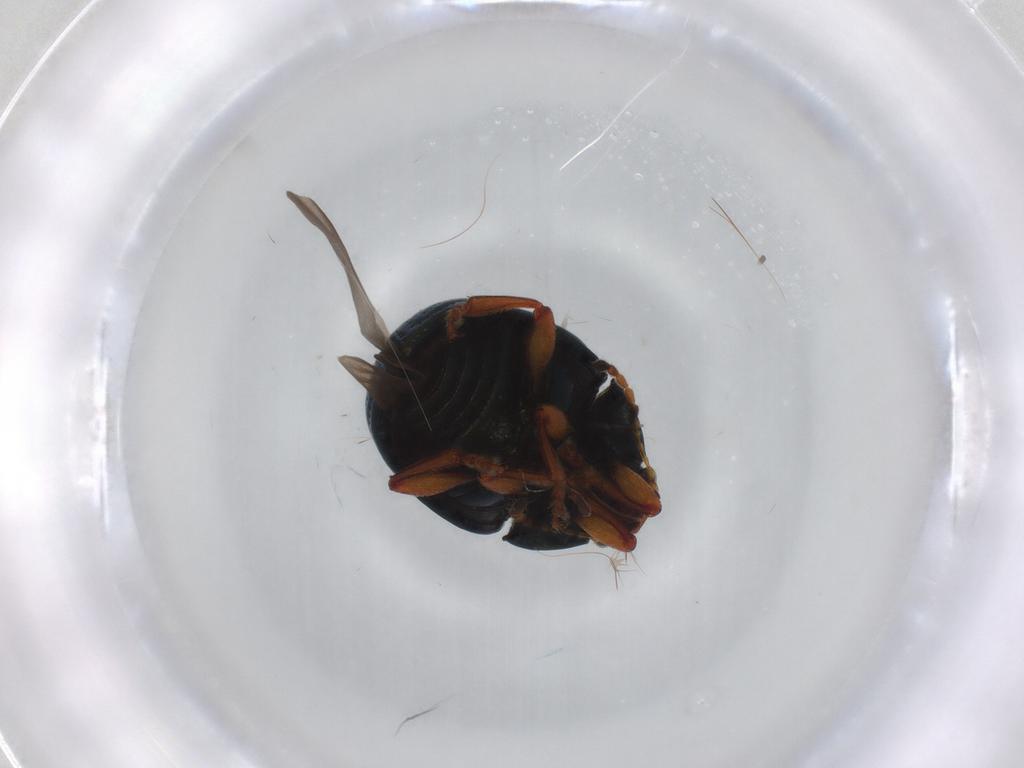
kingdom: Animalia
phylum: Arthropoda
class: Insecta
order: Coleoptera
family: Chrysomelidae
